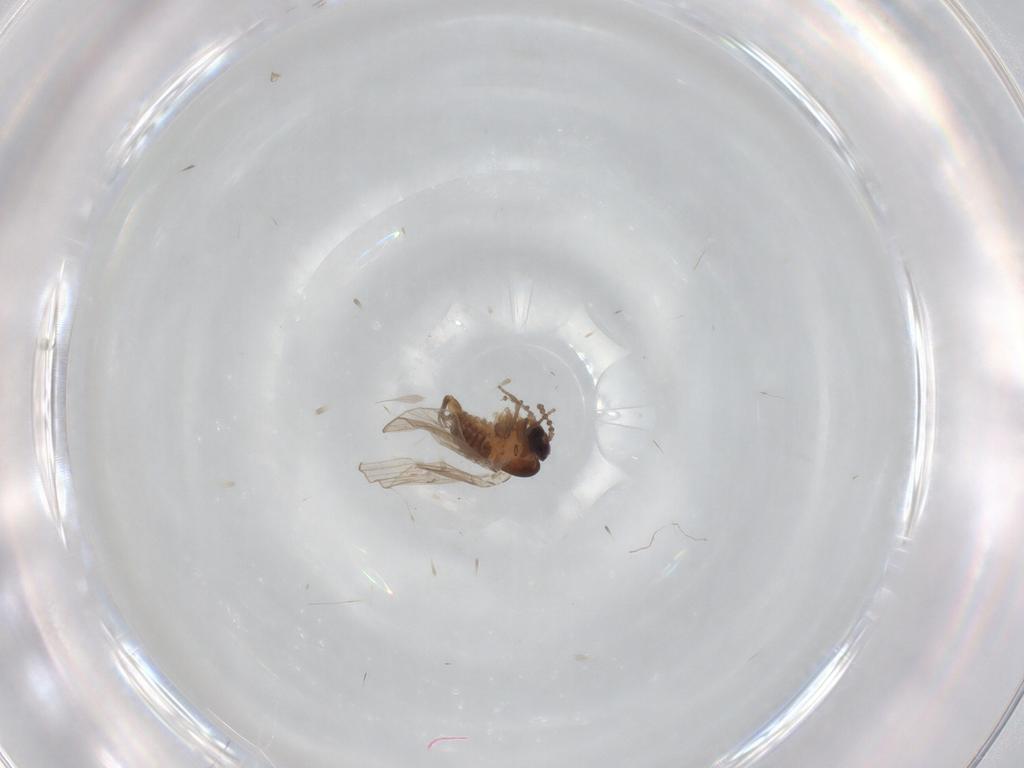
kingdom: Animalia
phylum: Arthropoda
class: Insecta
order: Diptera
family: Psychodidae
